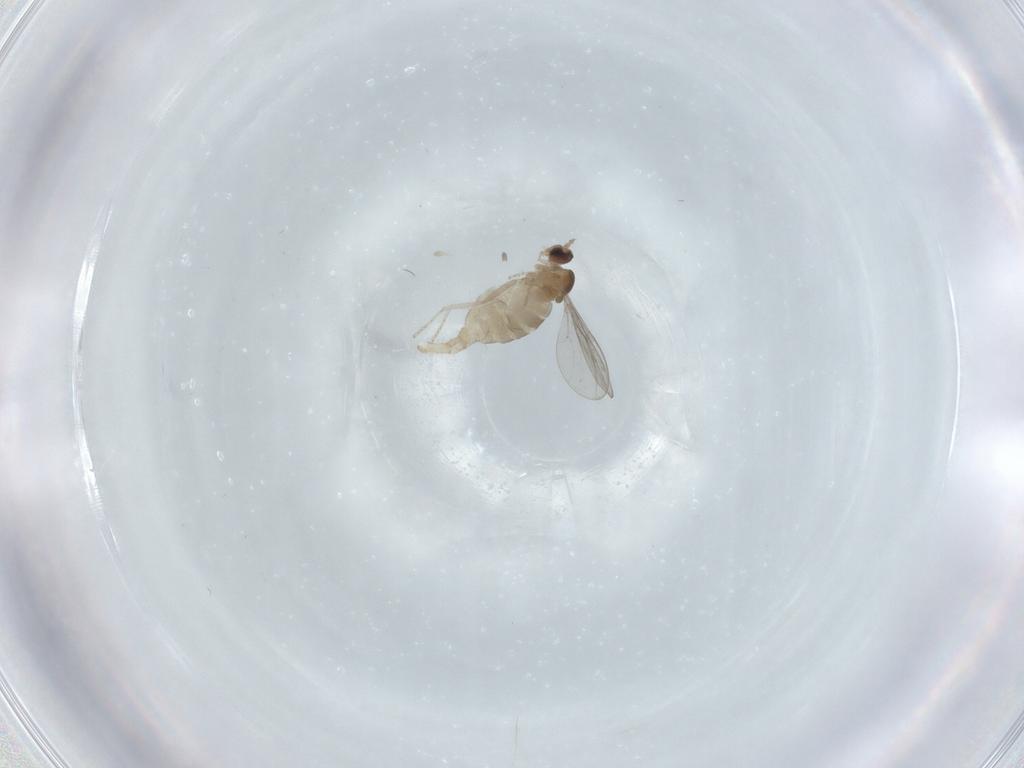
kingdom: Animalia
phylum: Arthropoda
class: Insecta
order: Diptera
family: Cecidomyiidae
